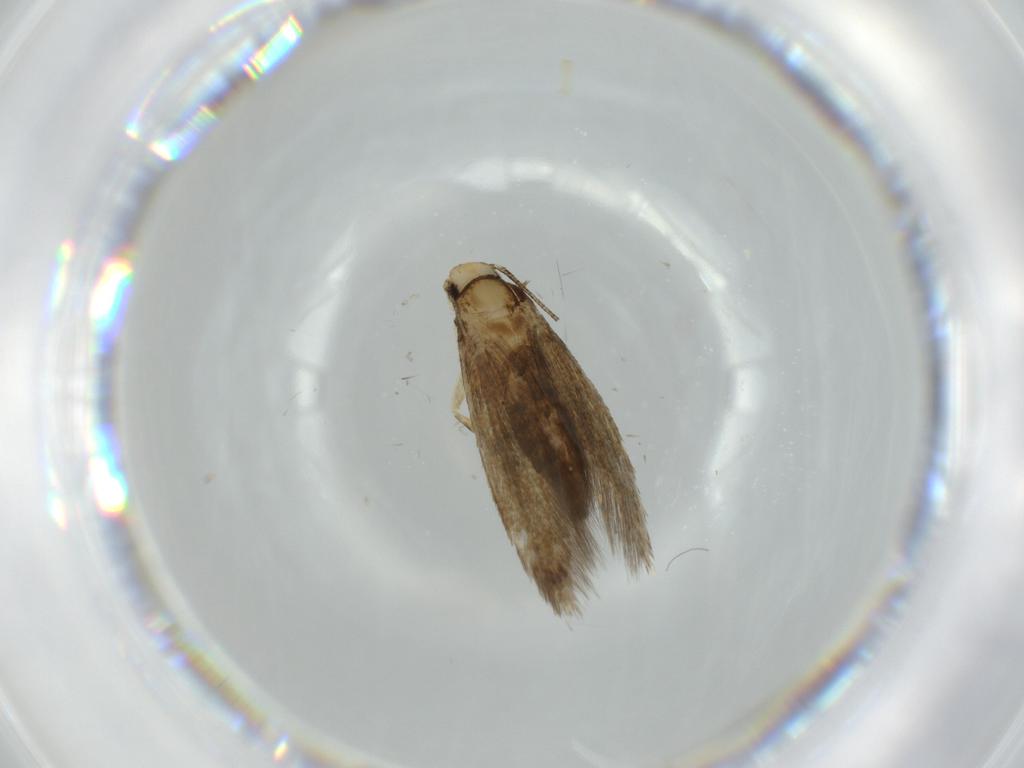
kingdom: Animalia
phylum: Arthropoda
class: Insecta
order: Lepidoptera
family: Tineidae
